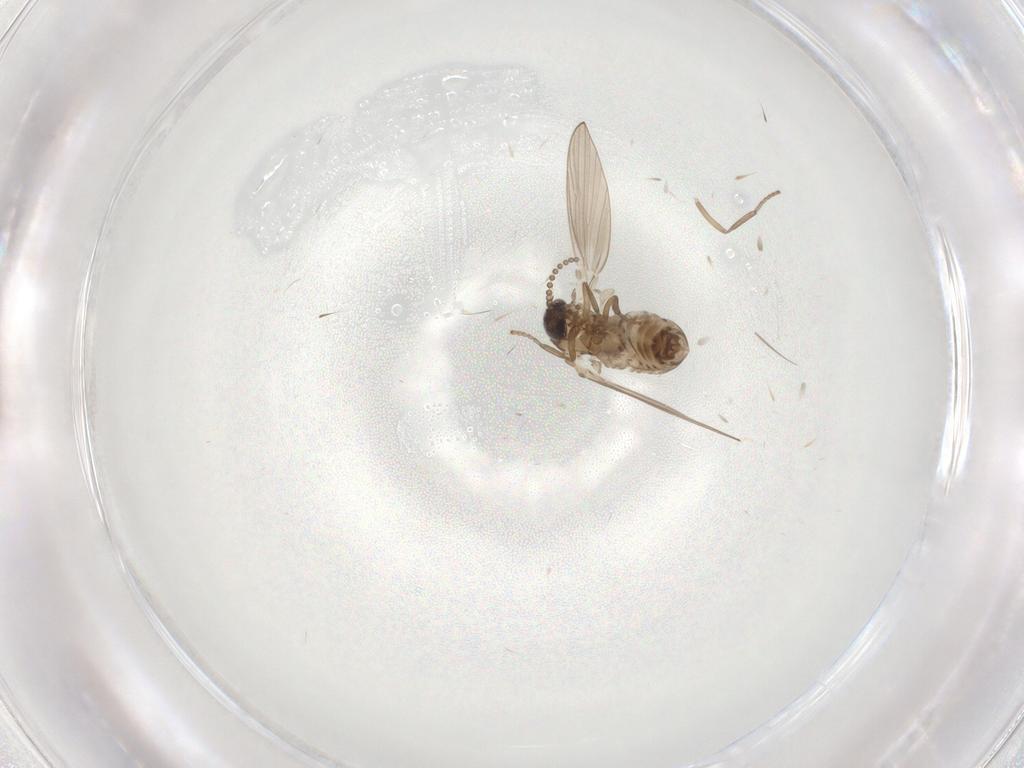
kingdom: Animalia
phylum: Arthropoda
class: Insecta
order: Diptera
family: Psychodidae
